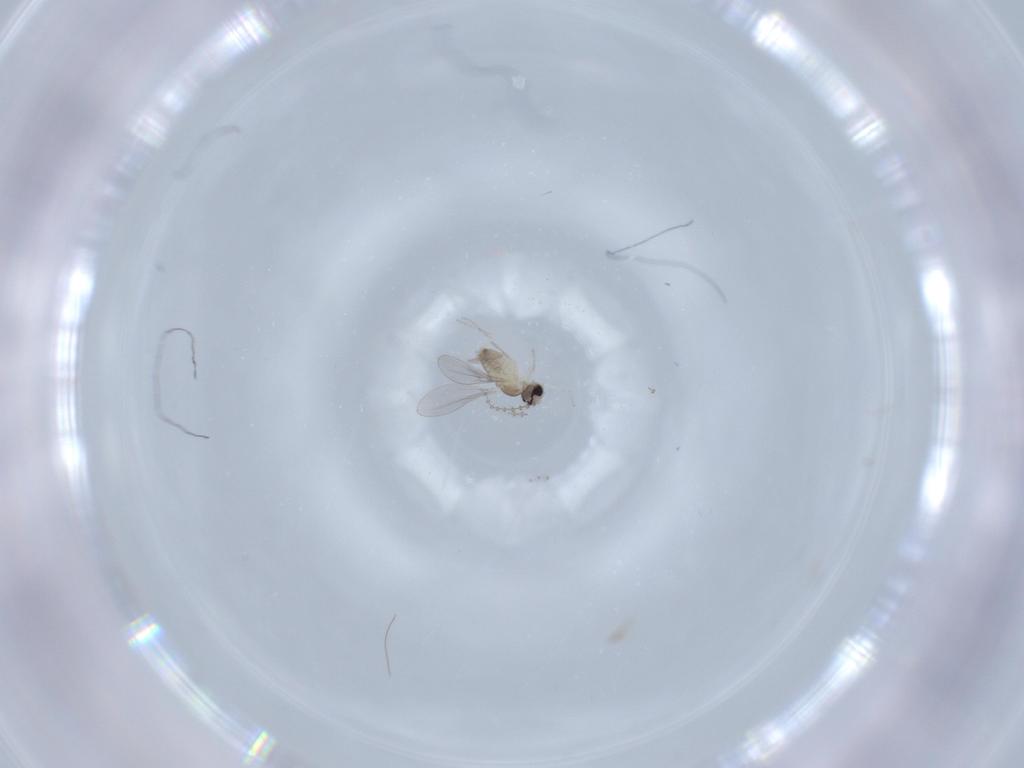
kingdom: Animalia
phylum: Arthropoda
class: Insecta
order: Diptera
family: Cecidomyiidae
